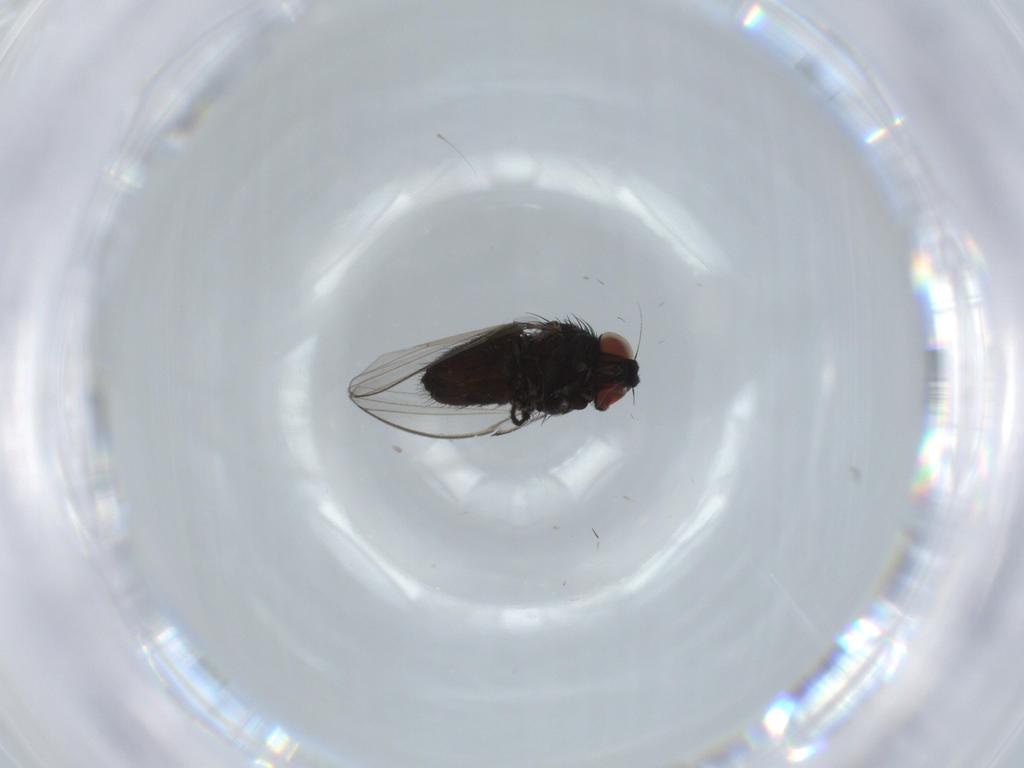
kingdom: Animalia
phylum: Arthropoda
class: Insecta
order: Diptera
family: Milichiidae
